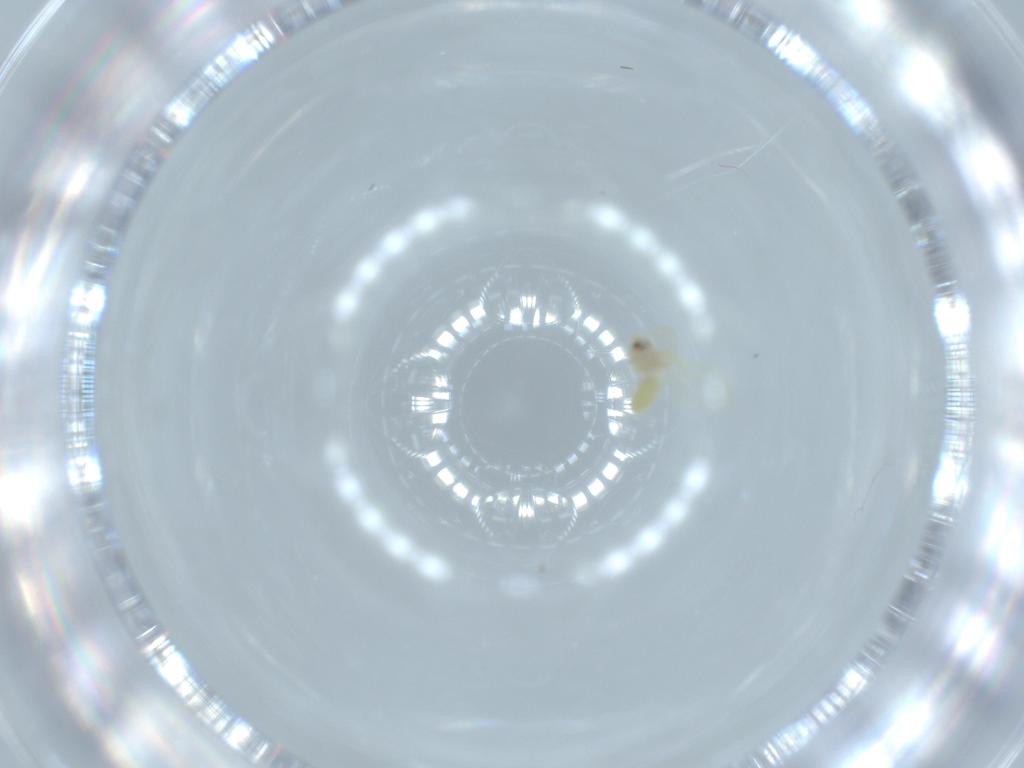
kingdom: Animalia
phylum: Arthropoda
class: Insecta
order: Hemiptera
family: Aleyrodidae
